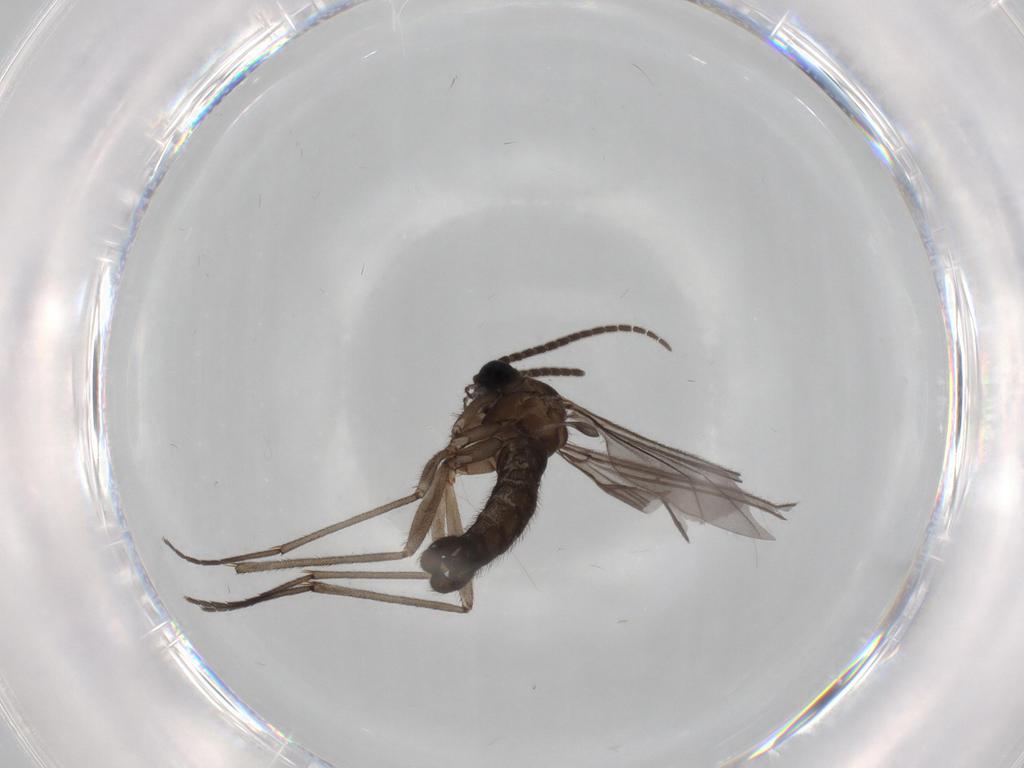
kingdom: Animalia
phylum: Arthropoda
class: Insecta
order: Diptera
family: Sciaridae
